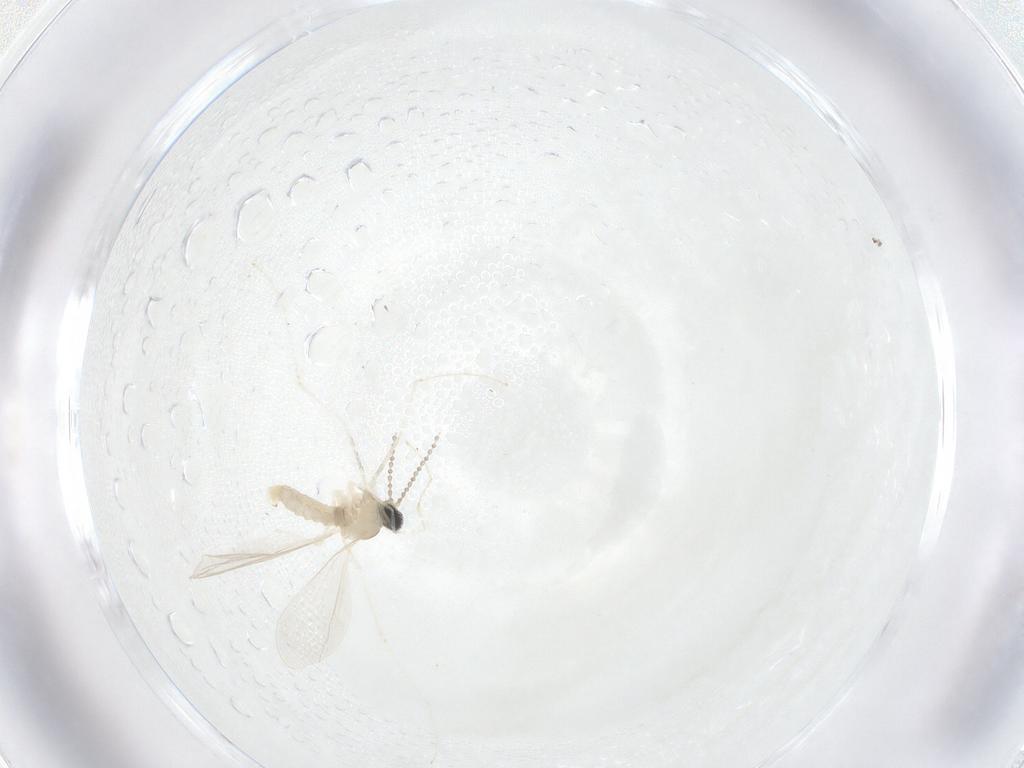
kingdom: Animalia
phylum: Arthropoda
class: Insecta
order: Diptera
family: Cecidomyiidae
